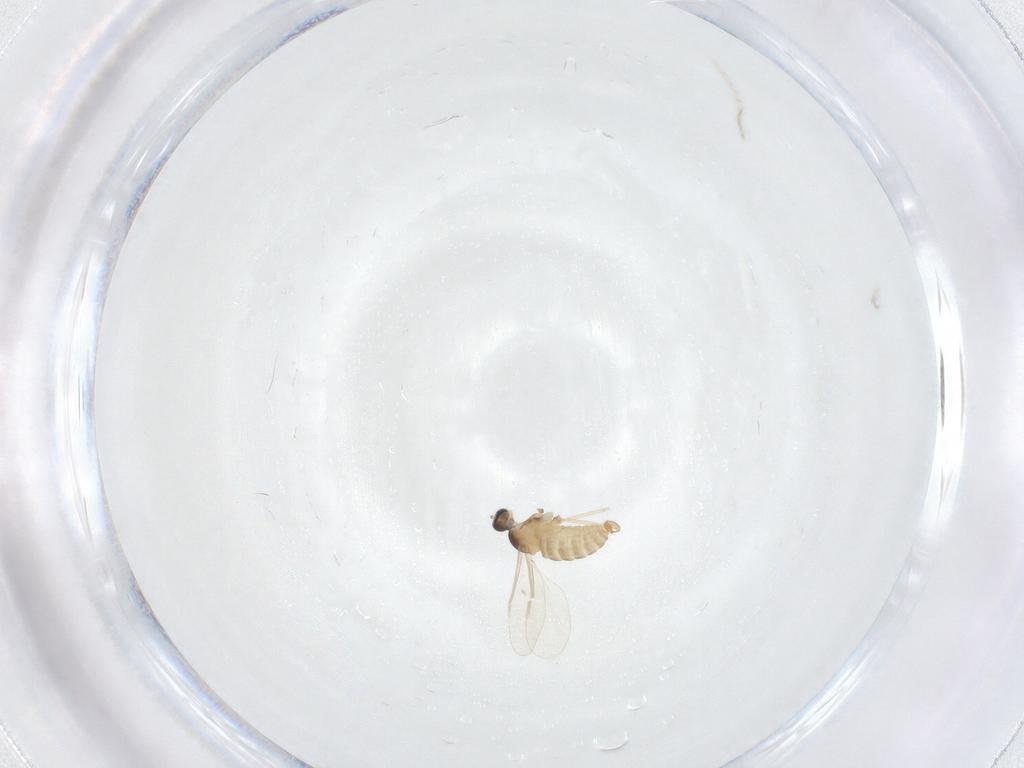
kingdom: Animalia
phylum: Arthropoda
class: Insecta
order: Diptera
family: Cecidomyiidae
